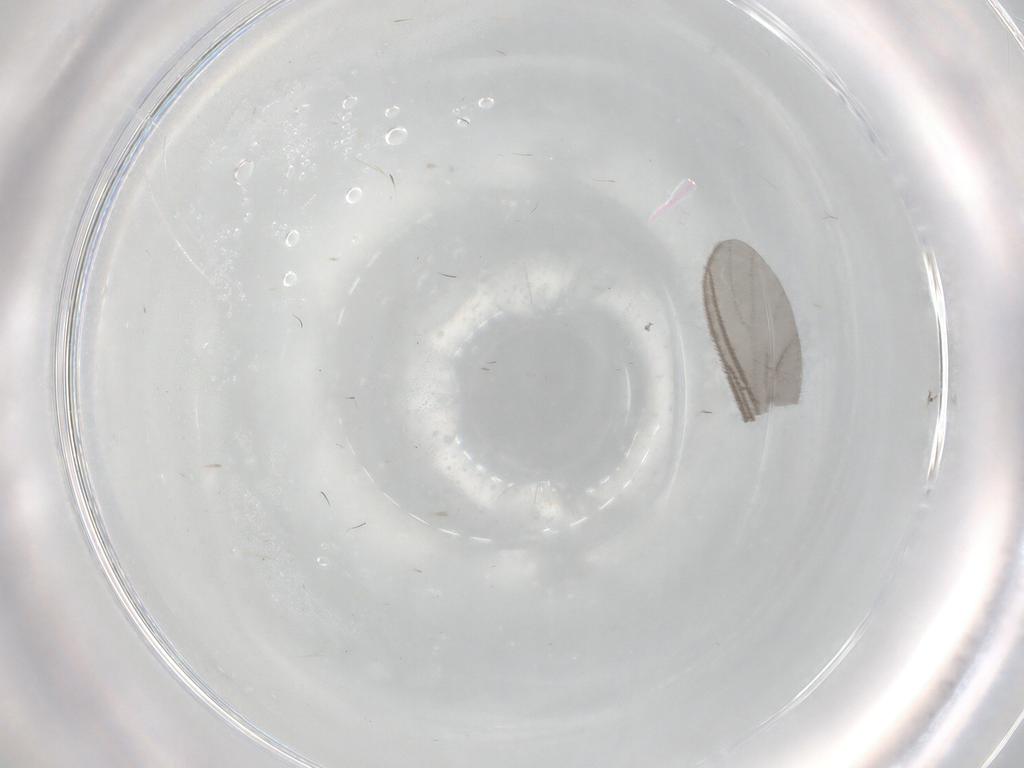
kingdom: Animalia
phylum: Arthropoda
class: Insecta
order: Diptera
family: Sciaridae
